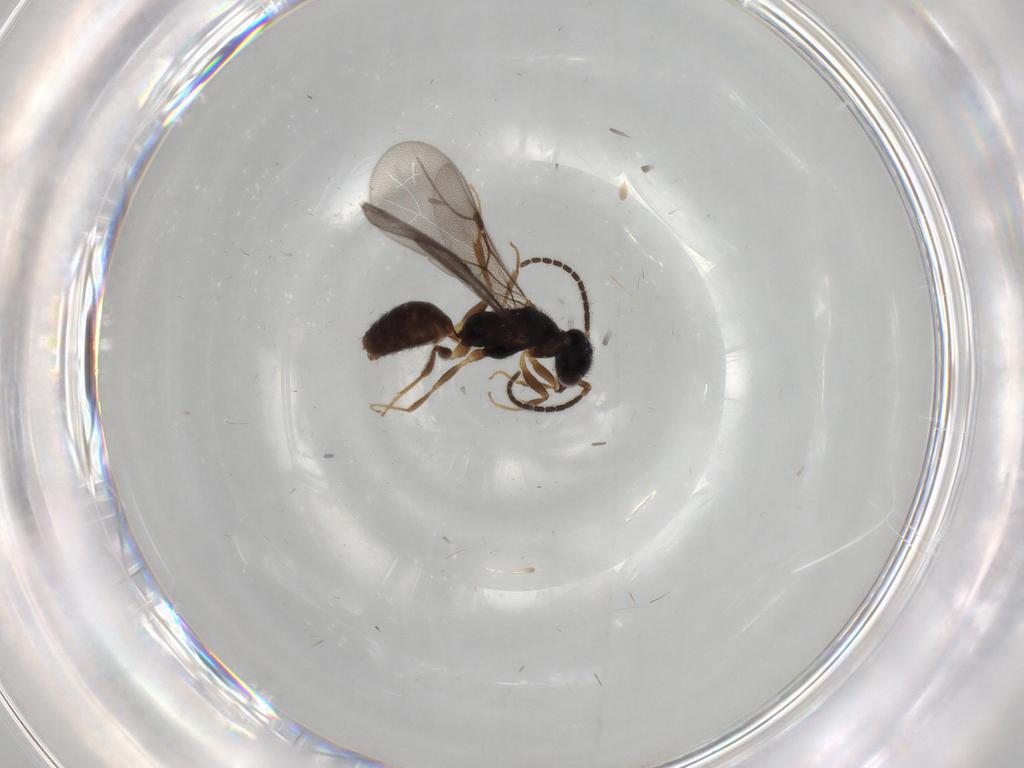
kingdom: Animalia
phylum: Arthropoda
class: Insecta
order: Hymenoptera
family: Bethylidae
